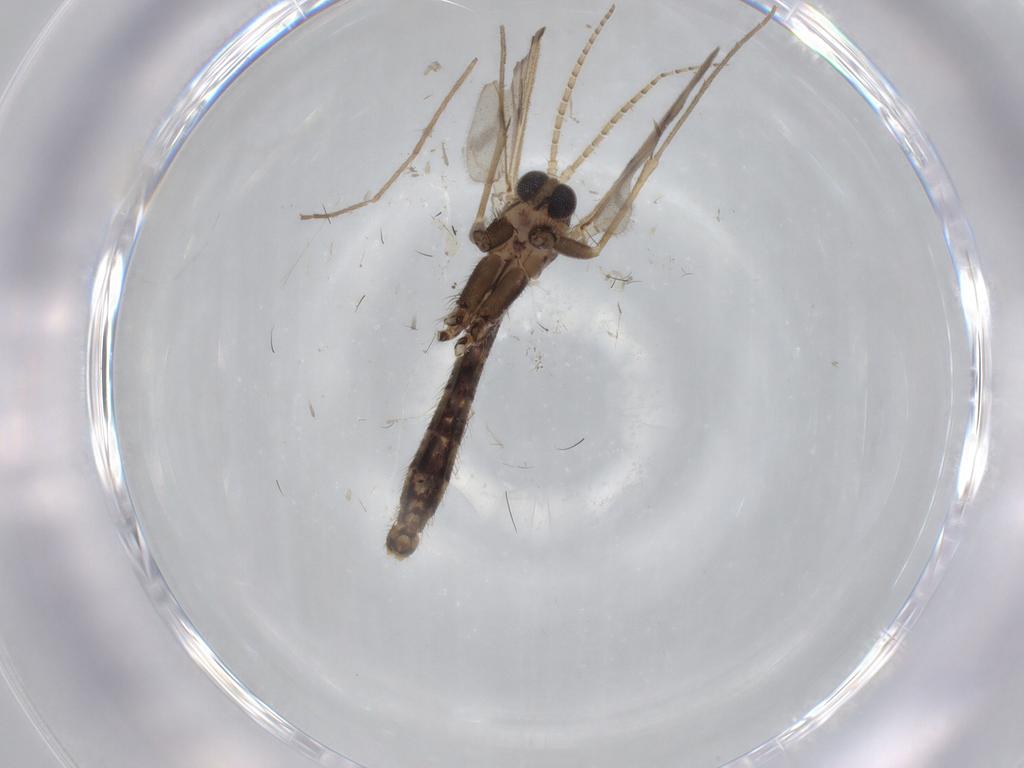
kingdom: Animalia
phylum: Arthropoda
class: Insecta
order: Diptera
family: Chironomidae
